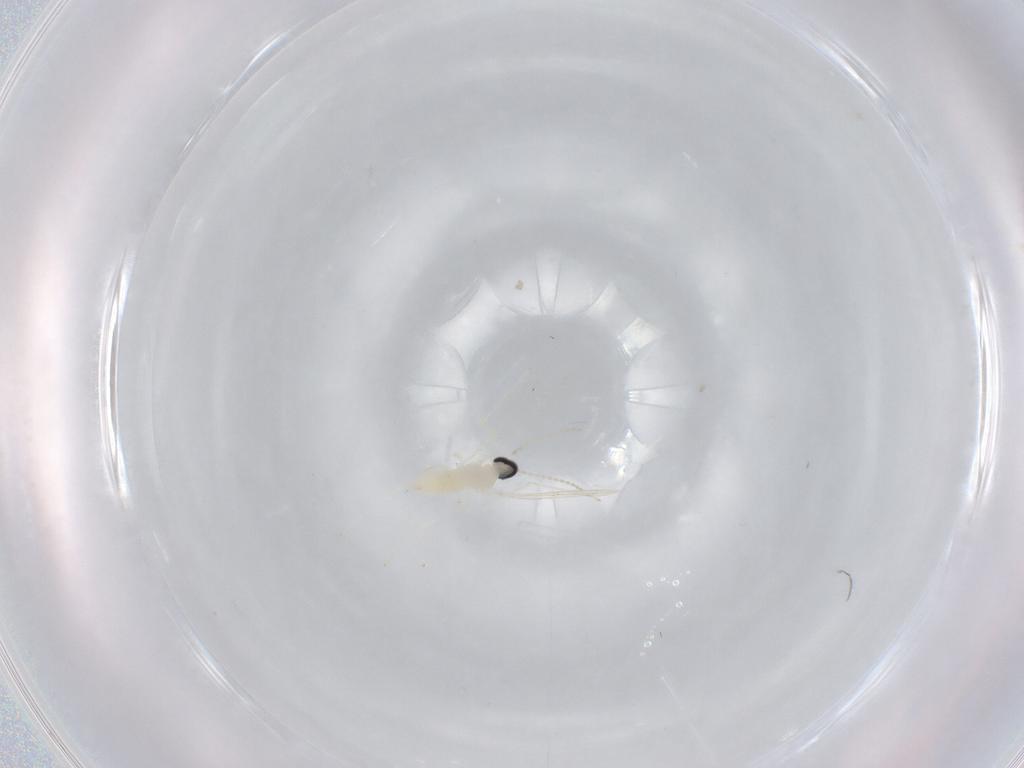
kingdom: Animalia
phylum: Arthropoda
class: Insecta
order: Diptera
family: Cecidomyiidae
